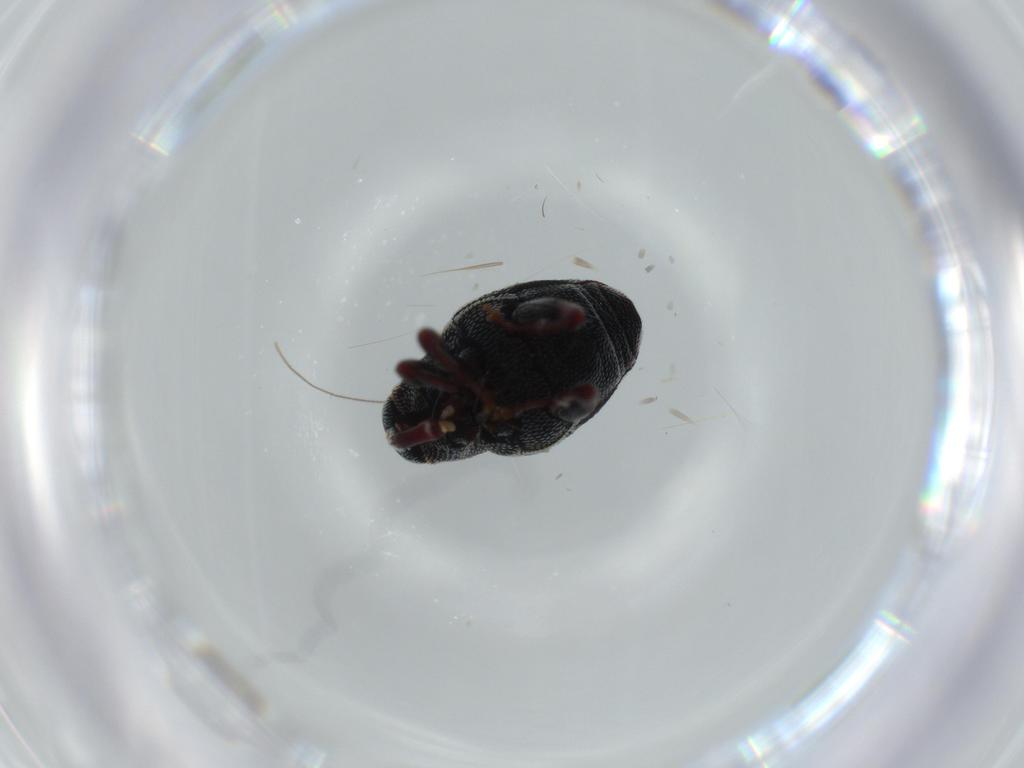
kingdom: Animalia
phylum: Arthropoda
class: Insecta
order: Coleoptera
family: Curculionidae
